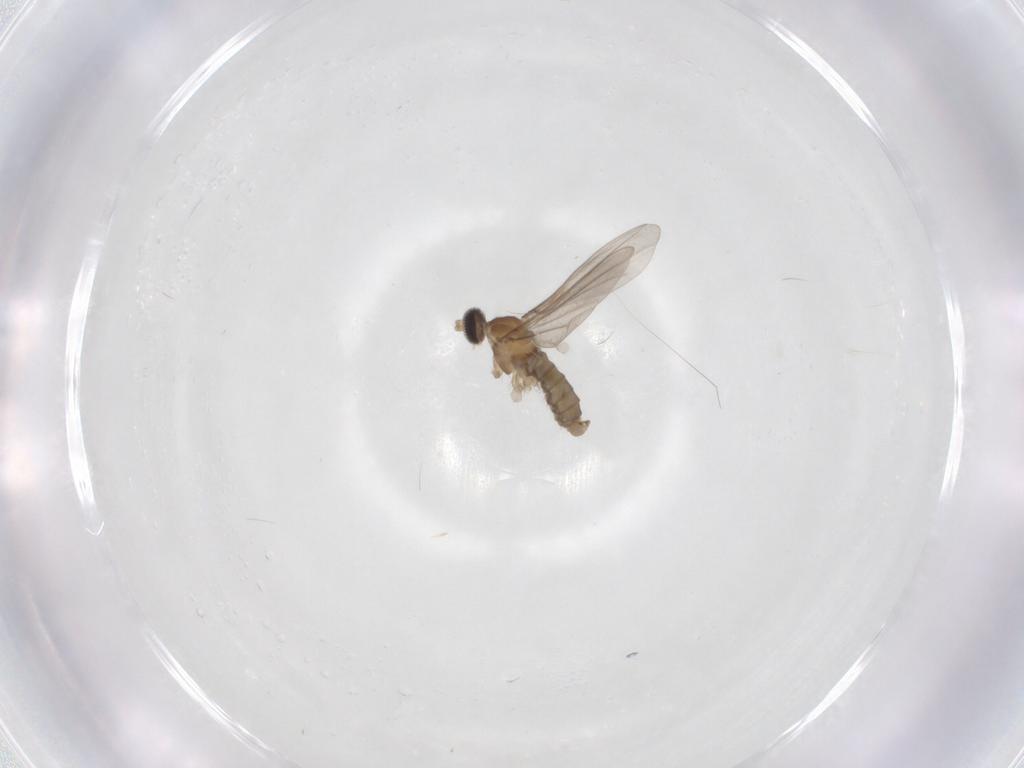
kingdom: Animalia
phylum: Arthropoda
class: Insecta
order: Diptera
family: Cecidomyiidae
